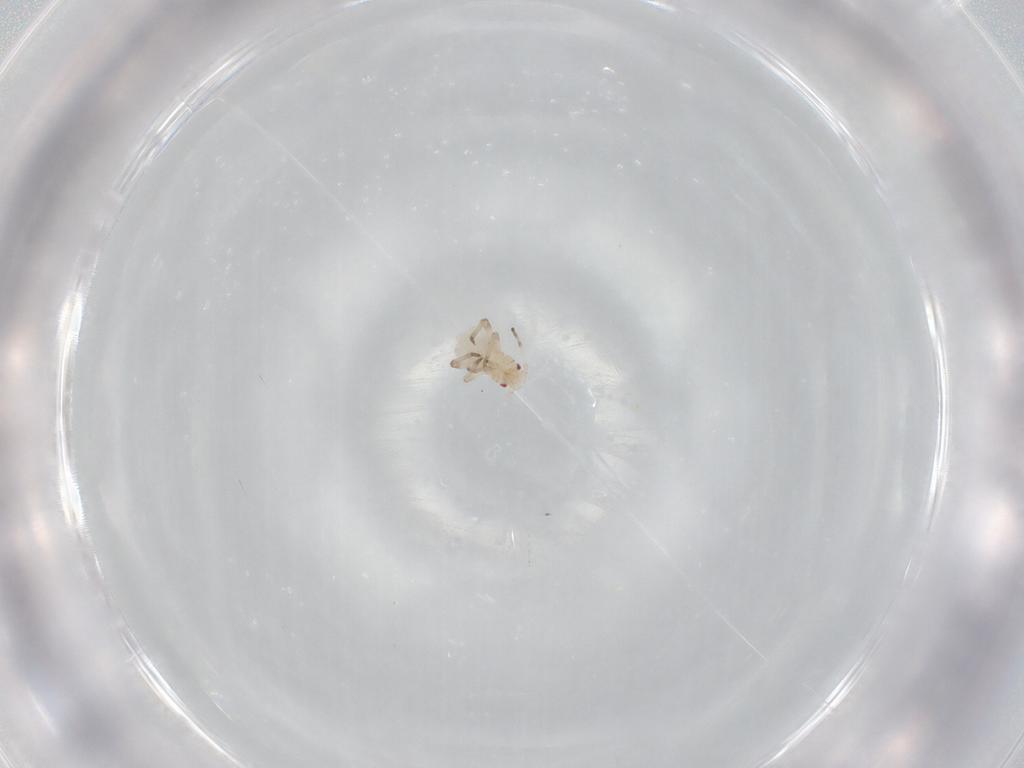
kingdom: Animalia
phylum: Arthropoda
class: Insecta
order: Hemiptera
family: Aphididae
